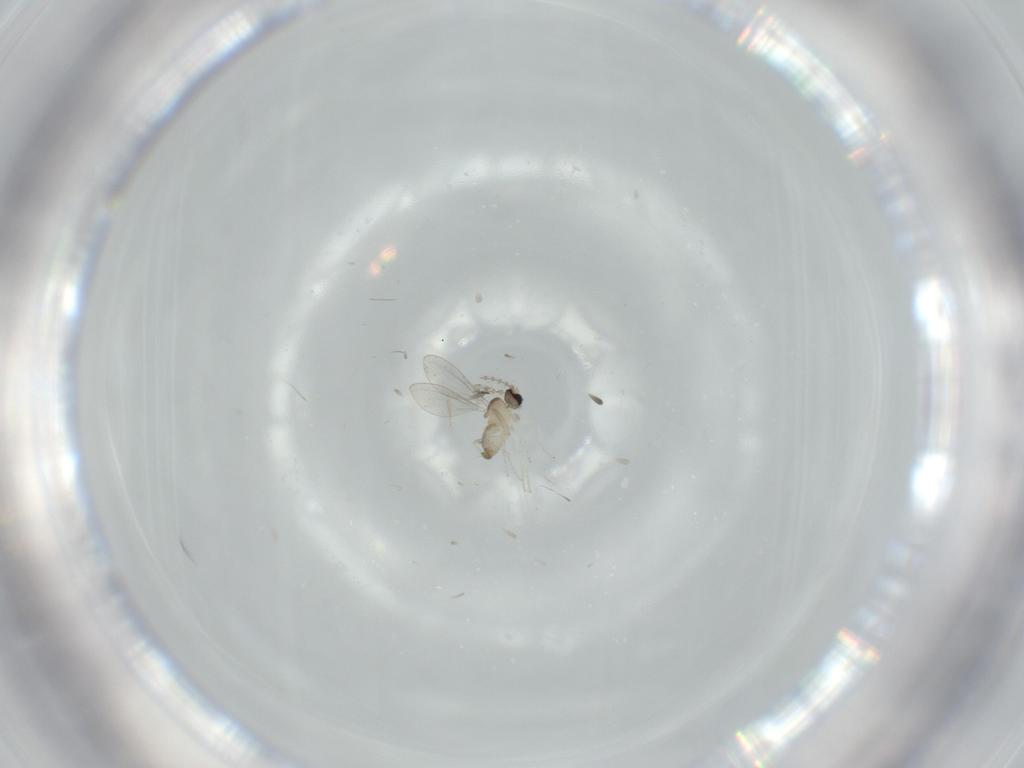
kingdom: Animalia
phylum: Arthropoda
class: Insecta
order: Diptera
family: Cecidomyiidae
